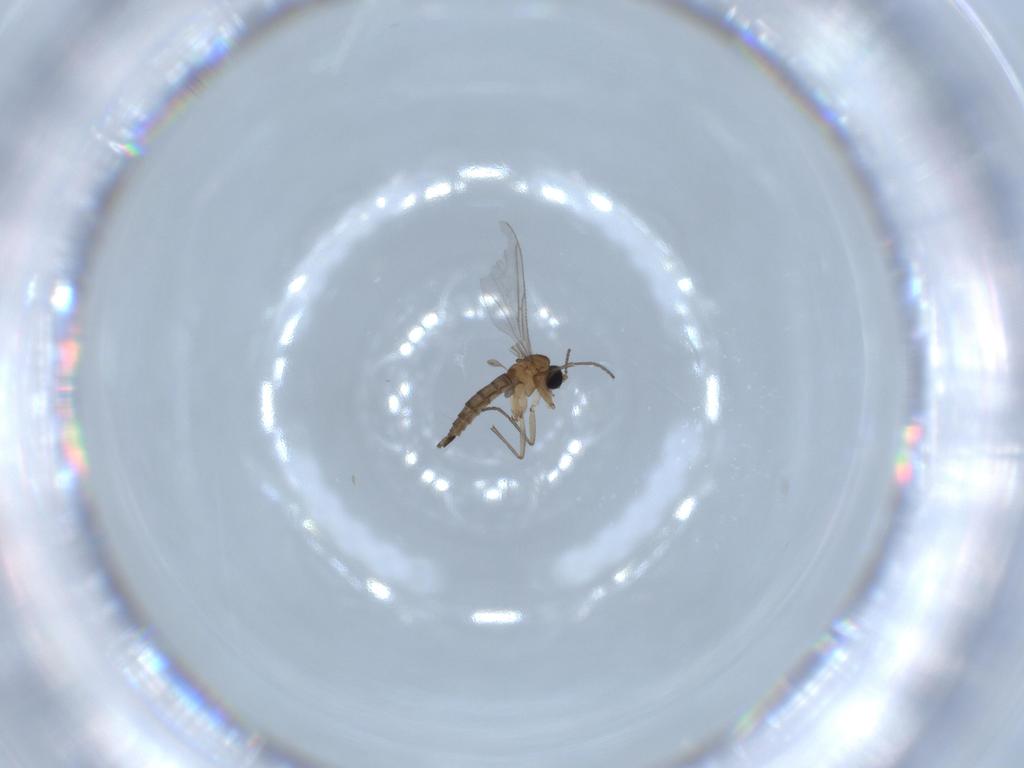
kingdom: Animalia
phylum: Arthropoda
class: Insecta
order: Diptera
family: Sciaridae
